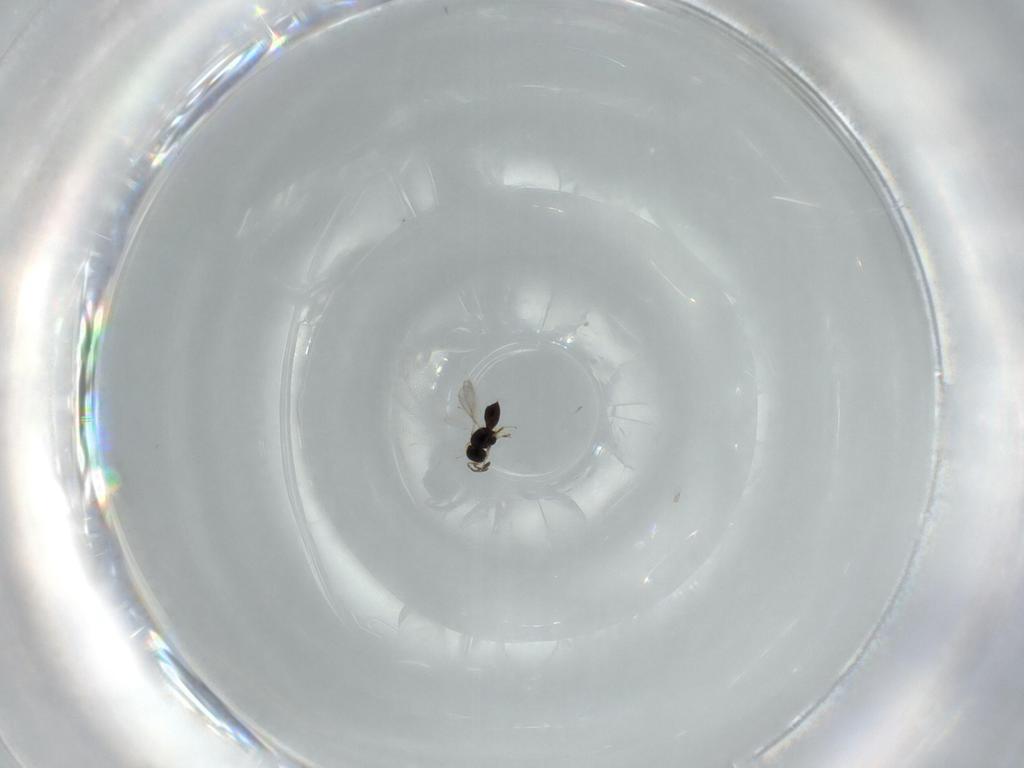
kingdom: Animalia
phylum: Arthropoda
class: Insecta
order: Hymenoptera
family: Scelionidae
